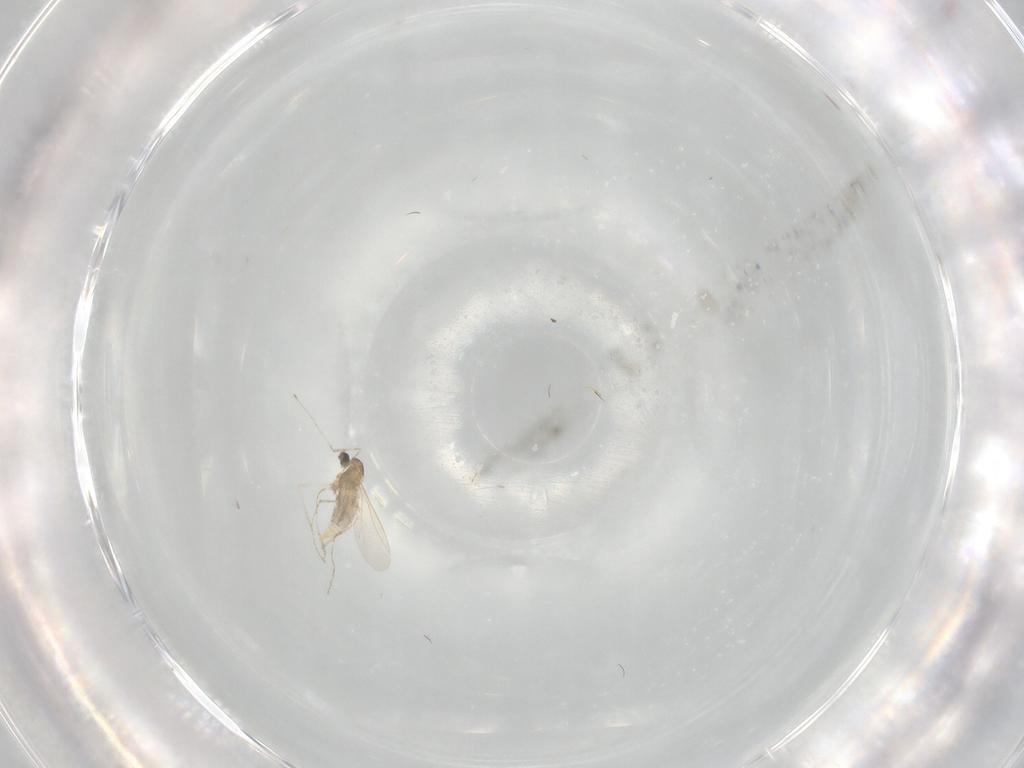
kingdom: Animalia
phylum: Arthropoda
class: Insecta
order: Diptera
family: Cecidomyiidae
